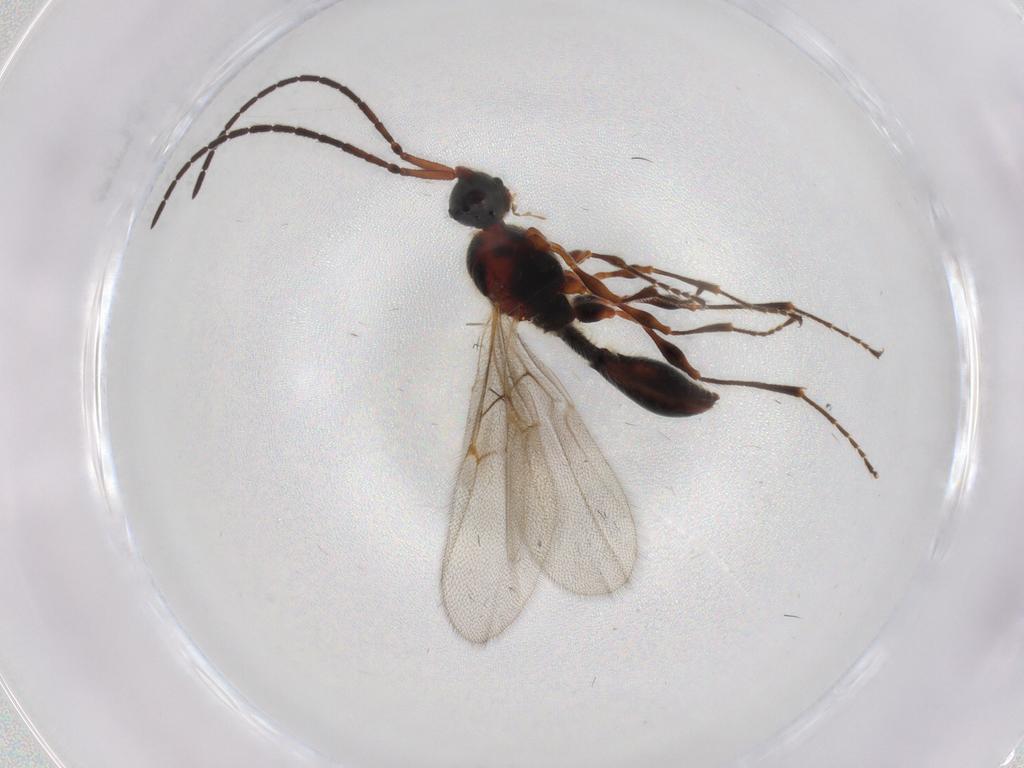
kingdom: Animalia
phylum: Arthropoda
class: Insecta
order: Hymenoptera
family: Diapriidae
